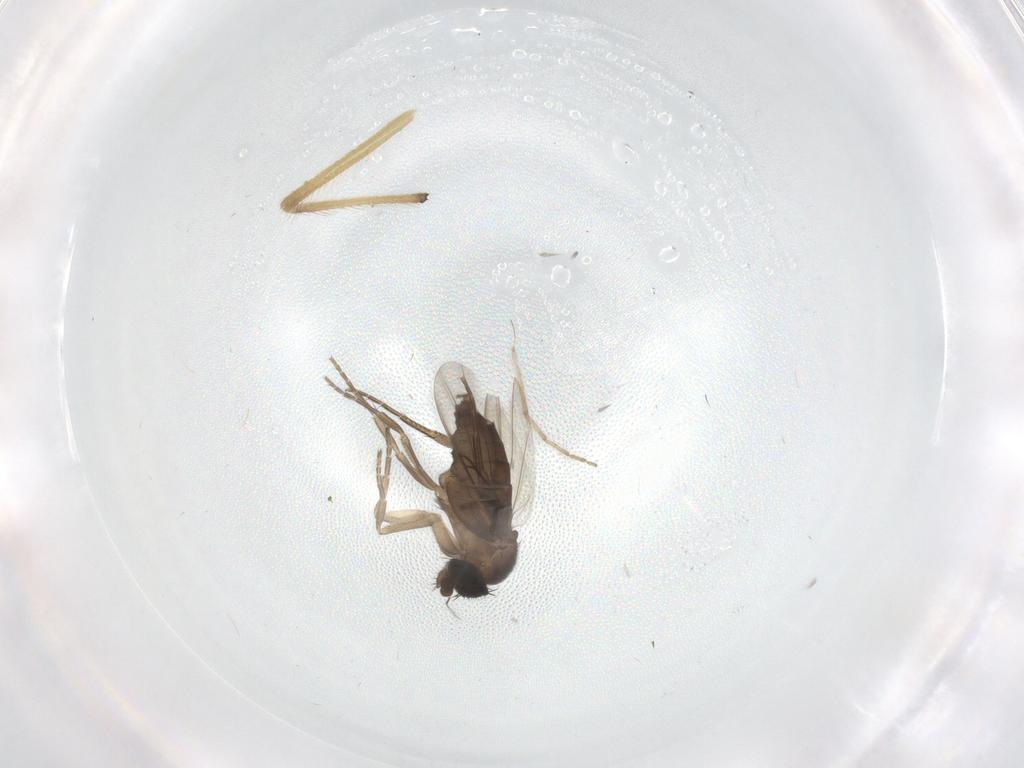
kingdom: Animalia
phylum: Arthropoda
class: Insecta
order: Diptera
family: Phoridae
